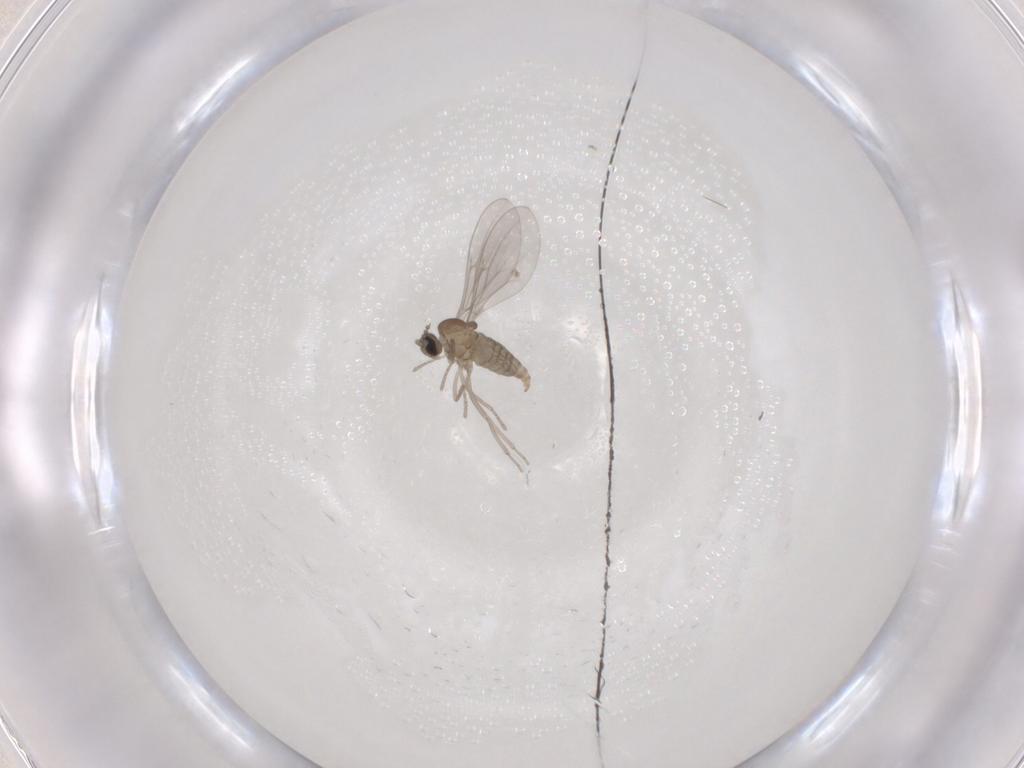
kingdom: Animalia
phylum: Arthropoda
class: Insecta
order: Diptera
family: Cecidomyiidae
